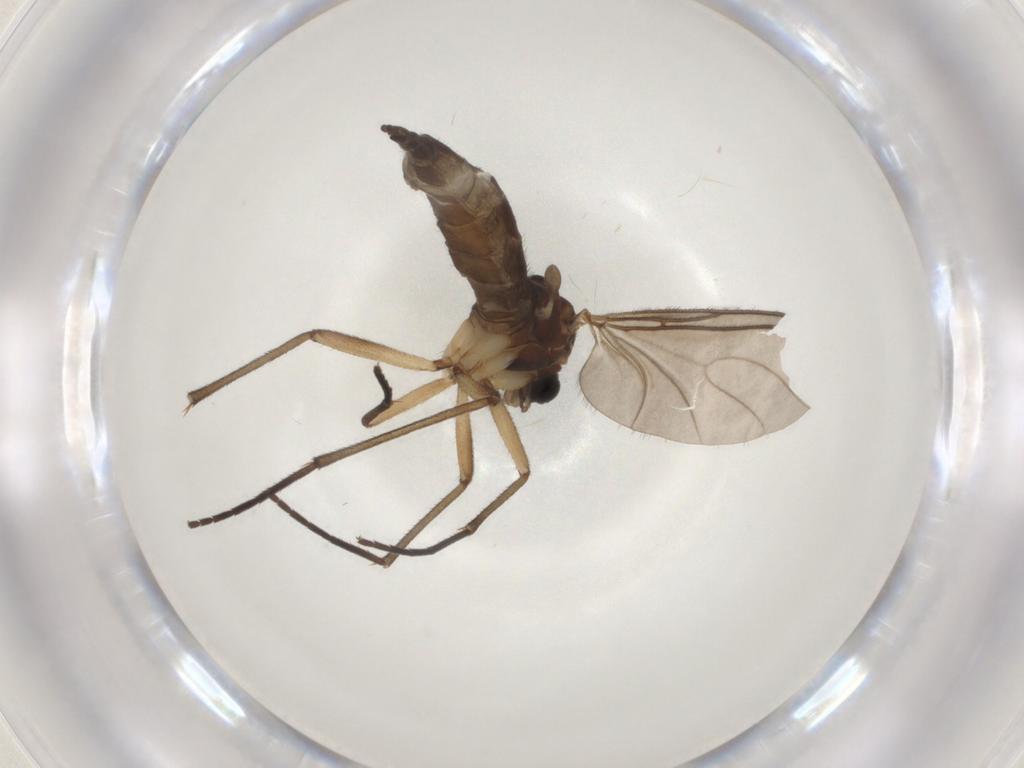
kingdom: Animalia
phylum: Arthropoda
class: Insecta
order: Diptera
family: Sciaridae
